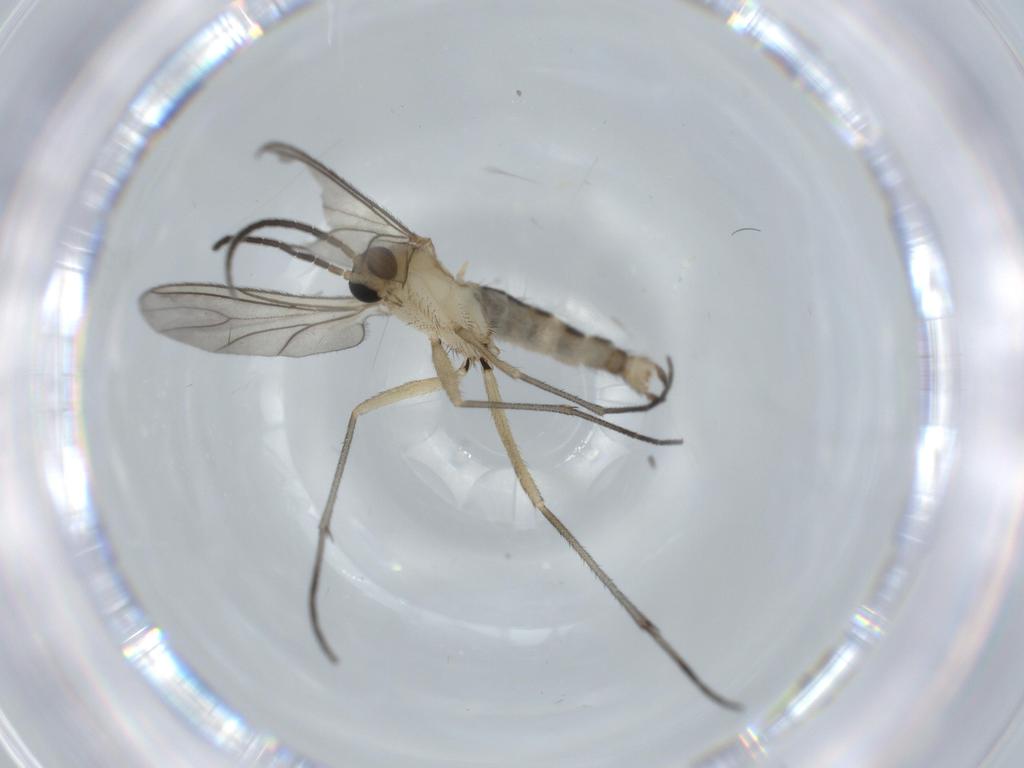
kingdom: Animalia
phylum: Arthropoda
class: Insecta
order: Diptera
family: Sciaridae
